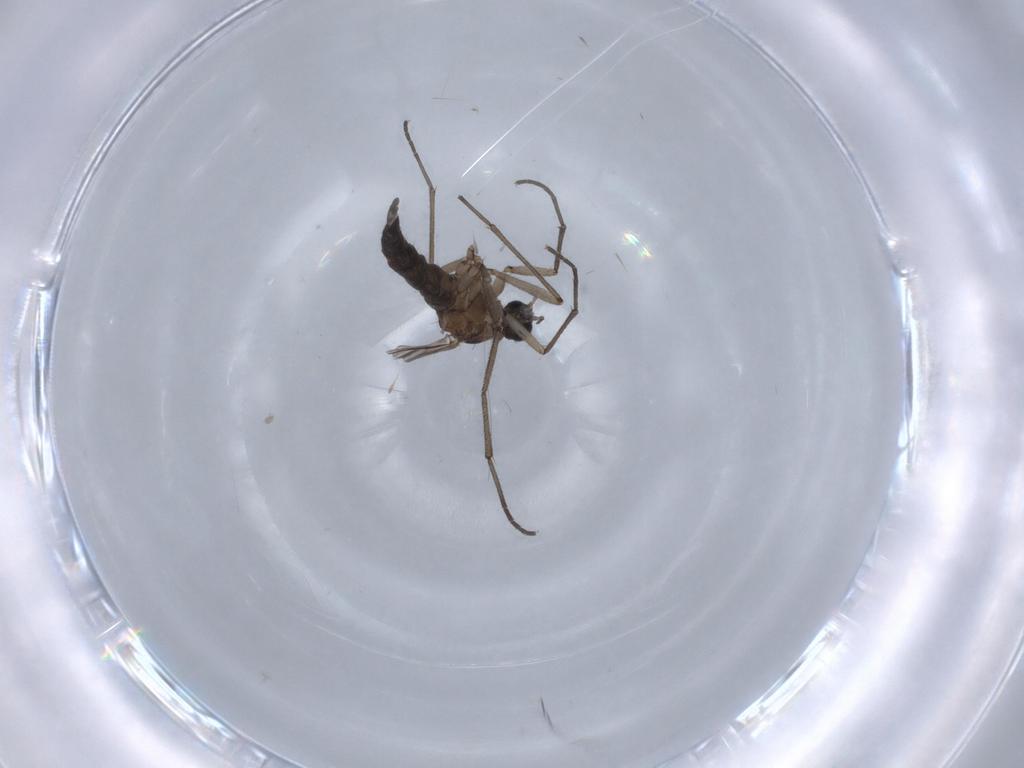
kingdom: Animalia
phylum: Arthropoda
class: Insecta
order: Diptera
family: Sciaridae
